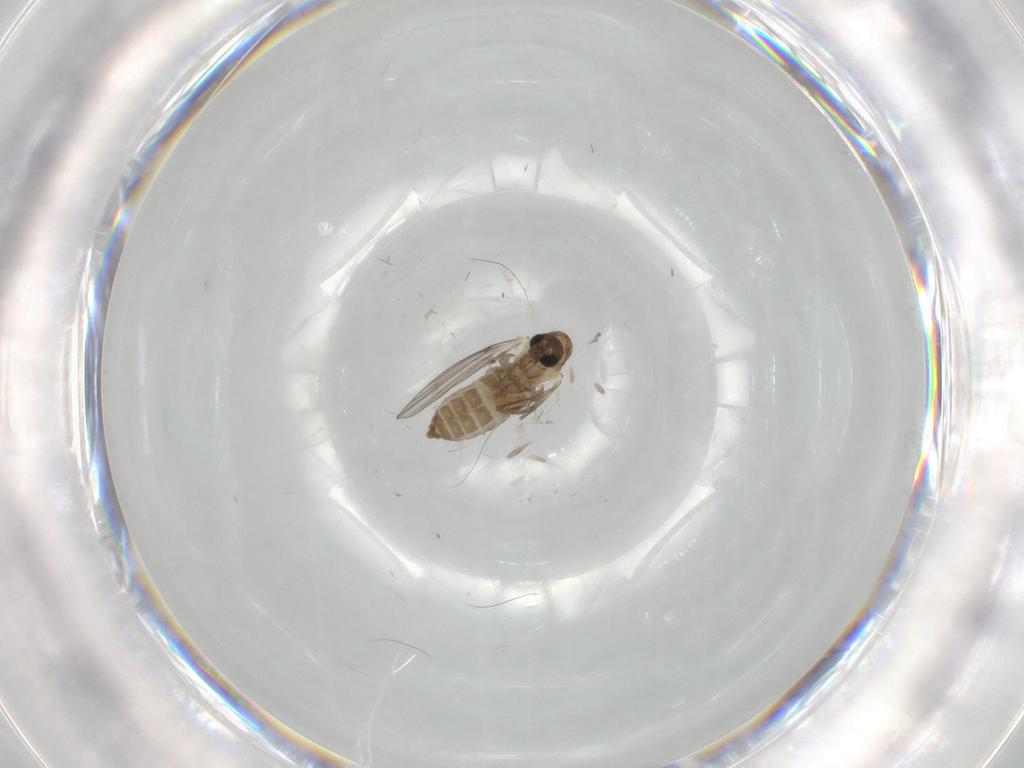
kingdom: Animalia
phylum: Arthropoda
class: Insecta
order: Diptera
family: Psychodidae
